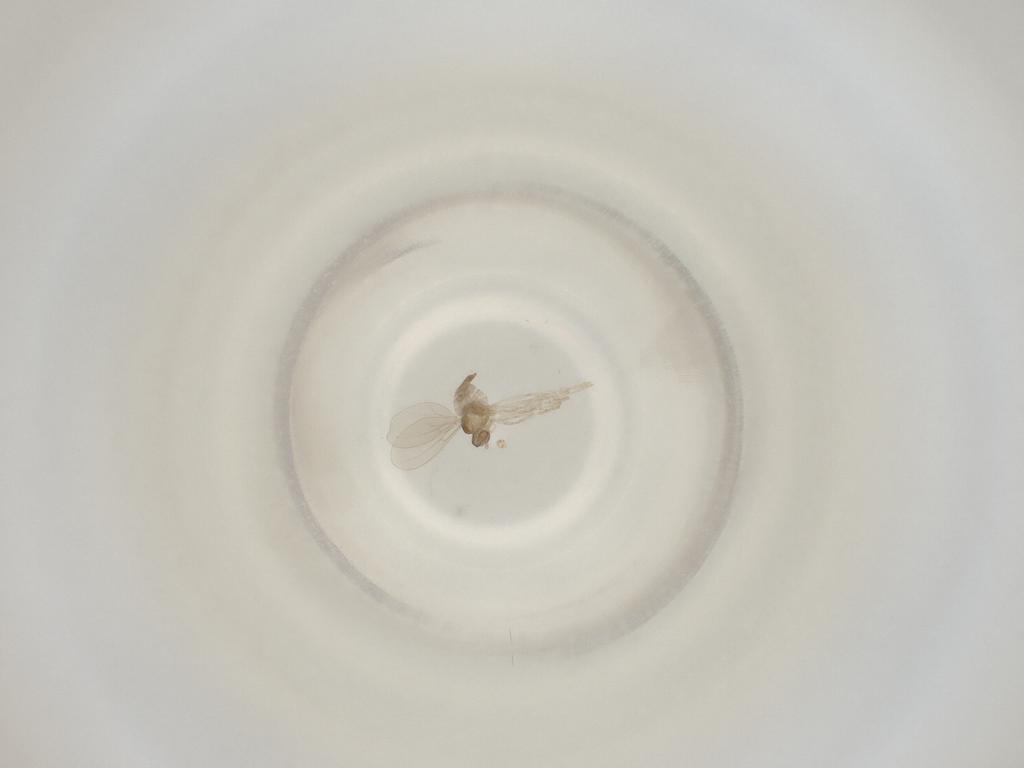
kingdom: Animalia
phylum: Arthropoda
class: Insecta
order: Diptera
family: Cecidomyiidae
